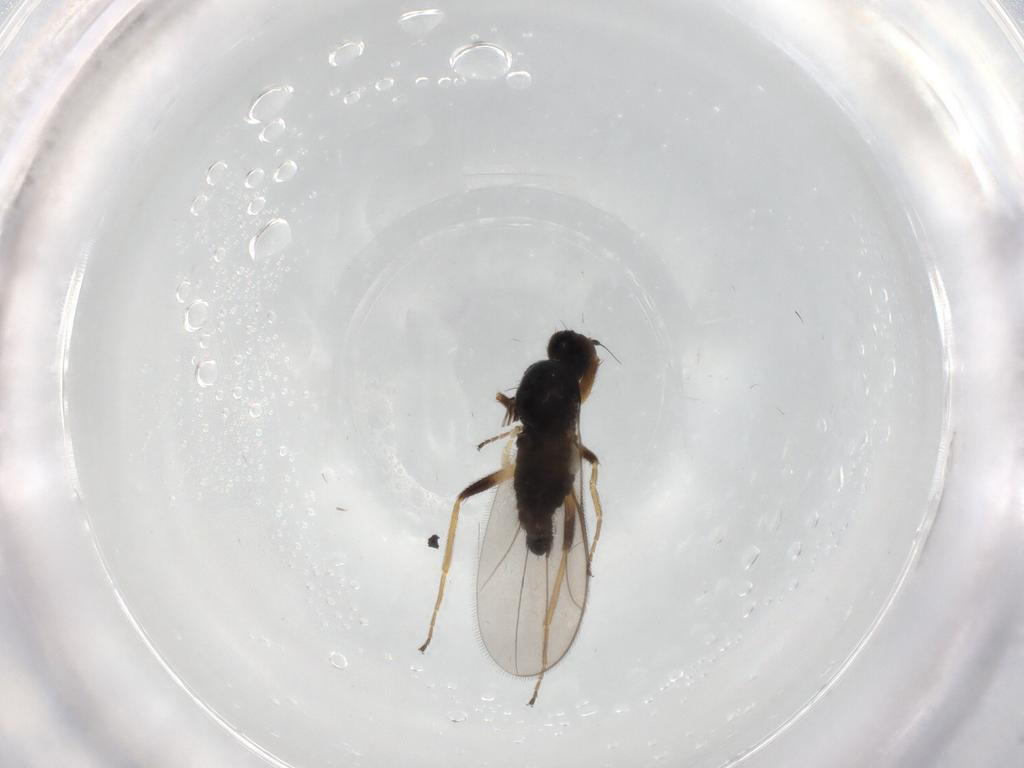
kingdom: Animalia
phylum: Arthropoda
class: Insecta
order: Diptera
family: Hybotidae
